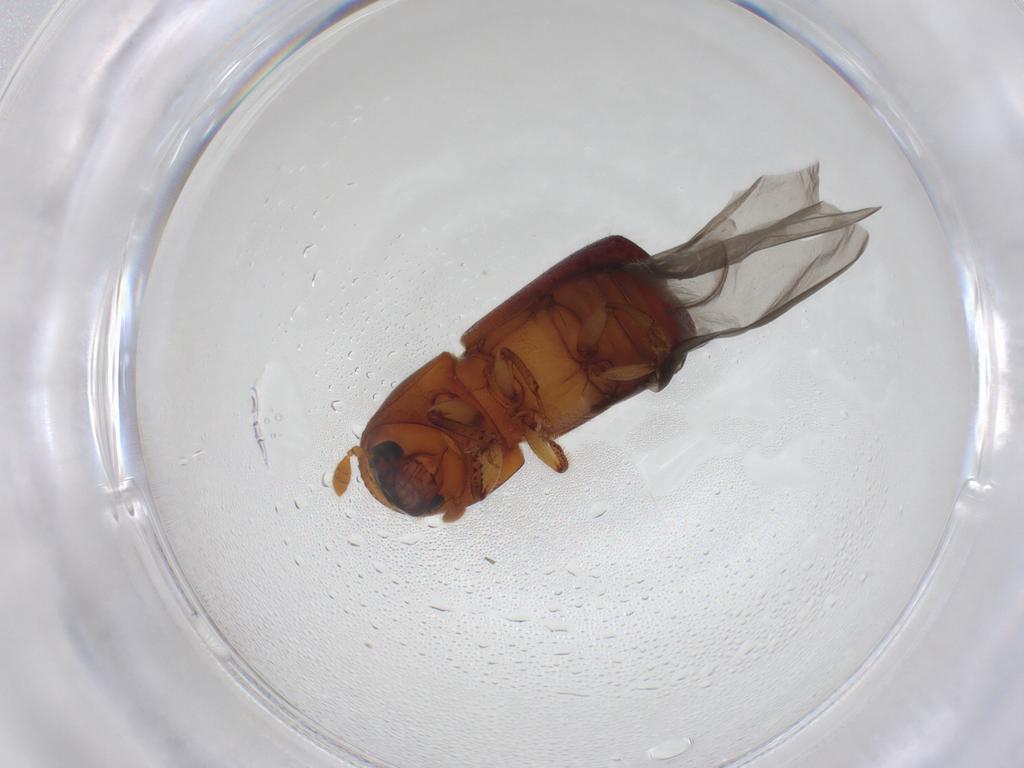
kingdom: Animalia
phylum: Arthropoda
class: Insecta
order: Coleoptera
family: Curculionidae
